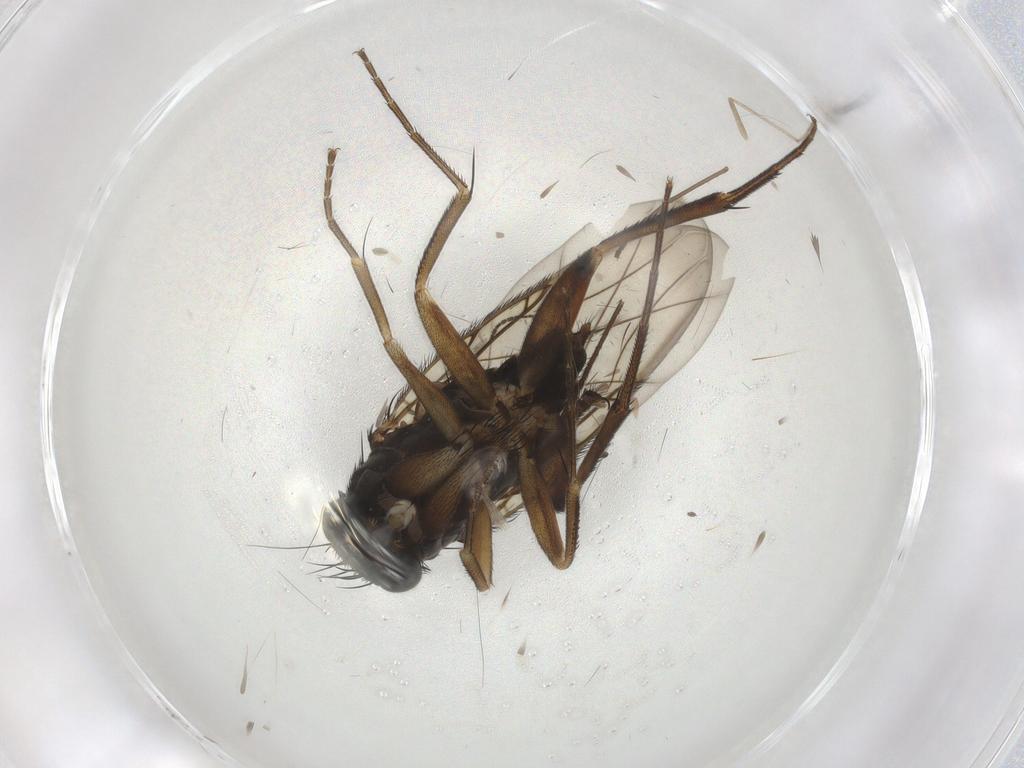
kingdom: Animalia
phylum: Arthropoda
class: Insecta
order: Diptera
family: Phoridae
